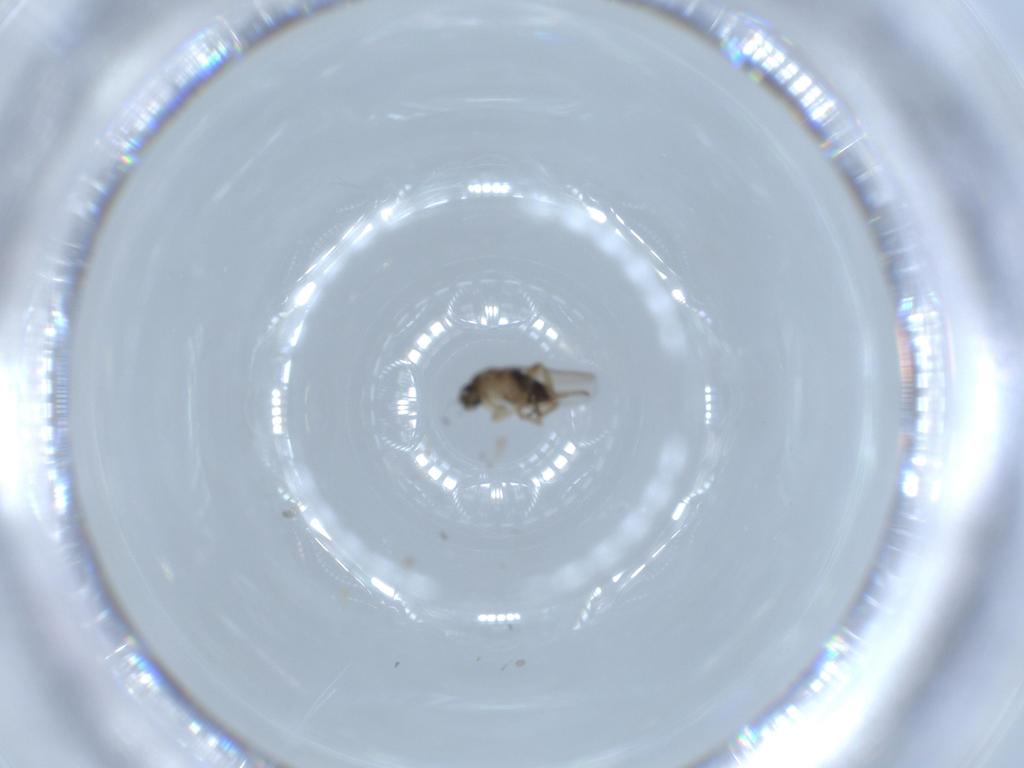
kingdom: Animalia
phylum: Arthropoda
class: Insecta
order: Diptera
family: Phoridae
